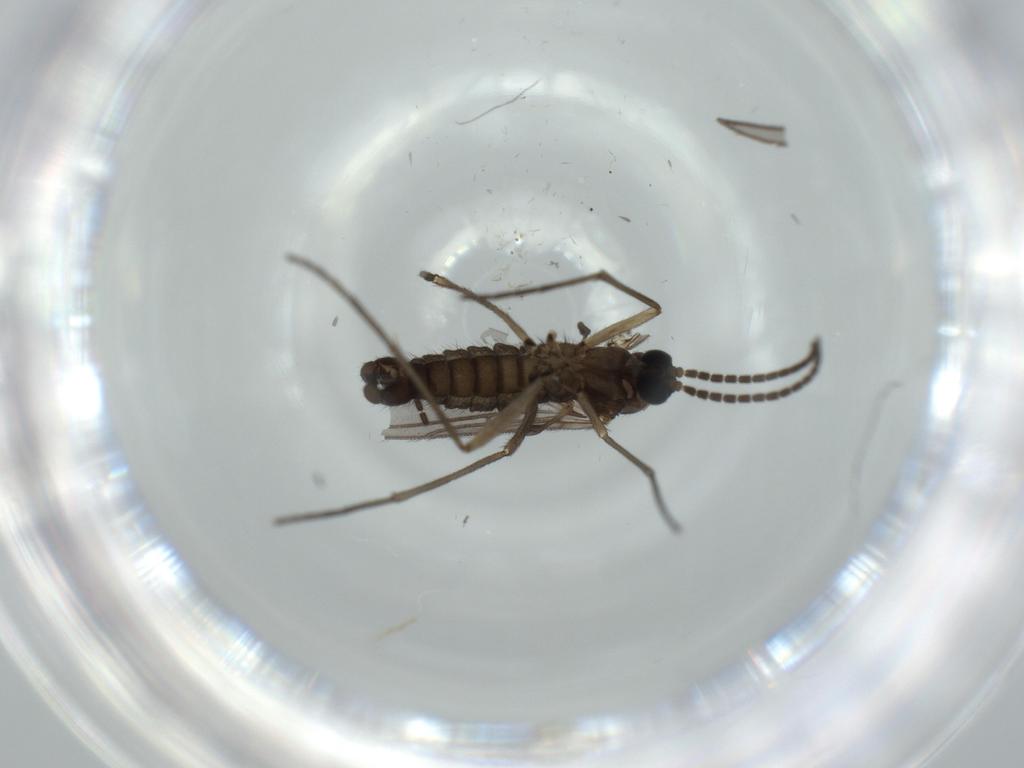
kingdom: Animalia
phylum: Arthropoda
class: Insecta
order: Diptera
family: Sciaridae
